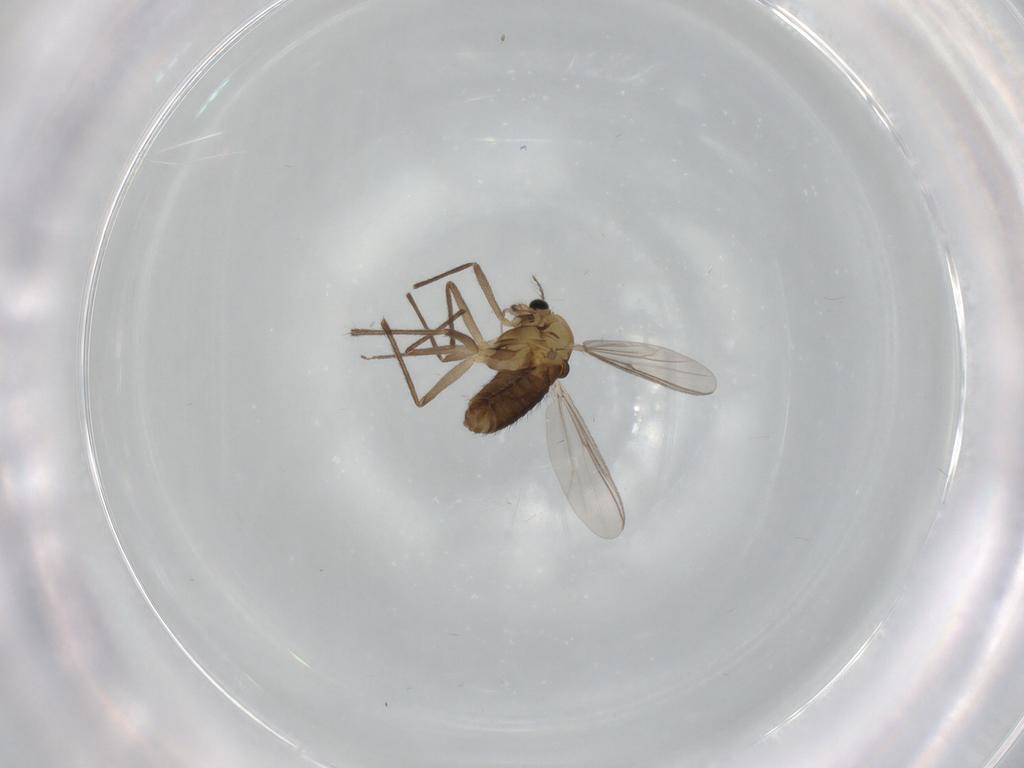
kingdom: Animalia
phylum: Arthropoda
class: Insecta
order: Diptera
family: Chironomidae
